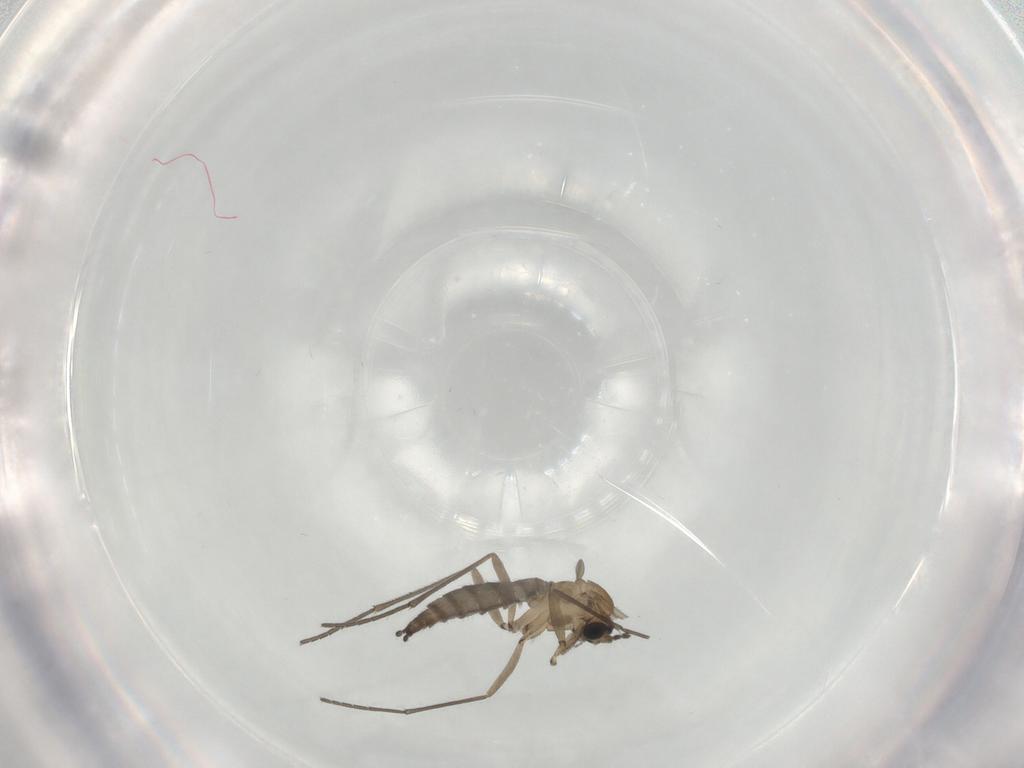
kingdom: Animalia
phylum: Arthropoda
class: Insecta
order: Diptera
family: Sciaridae
